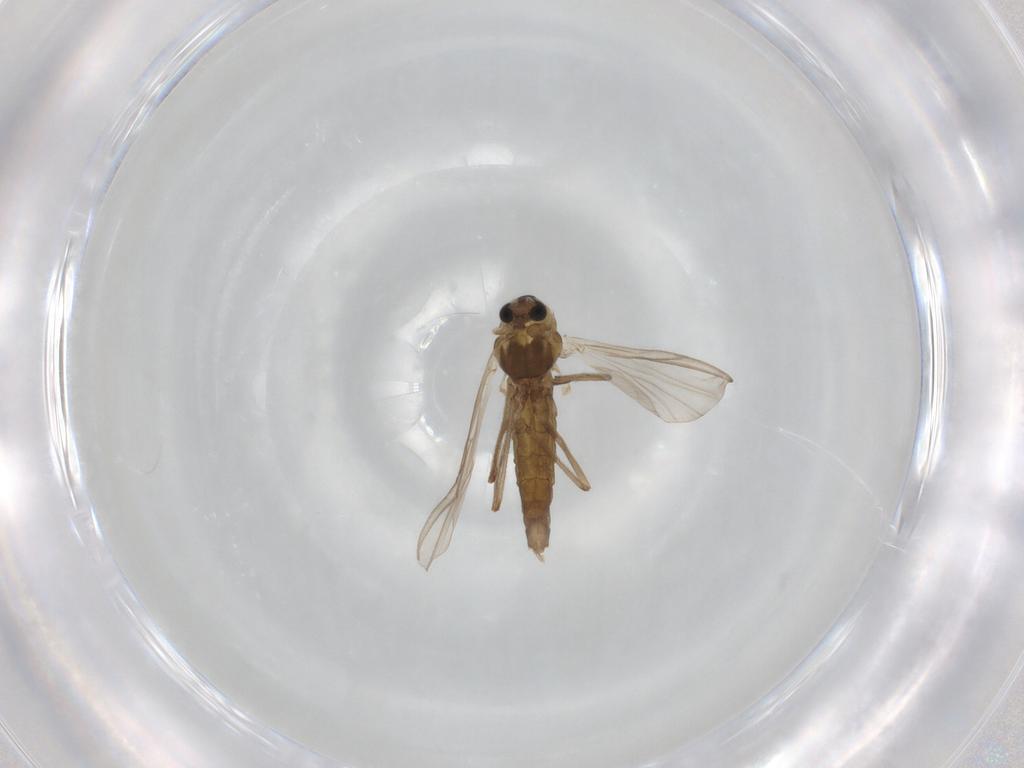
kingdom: Animalia
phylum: Arthropoda
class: Insecta
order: Diptera
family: Chironomidae
